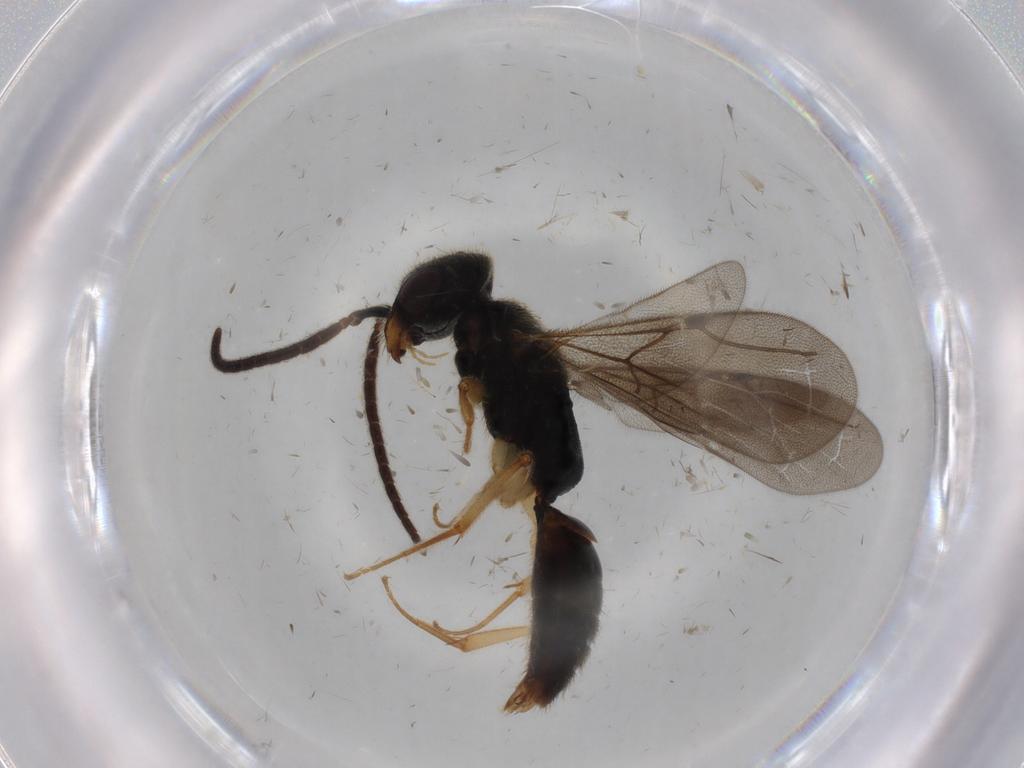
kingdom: Animalia
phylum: Arthropoda
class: Insecta
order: Hymenoptera
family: Bethylidae
